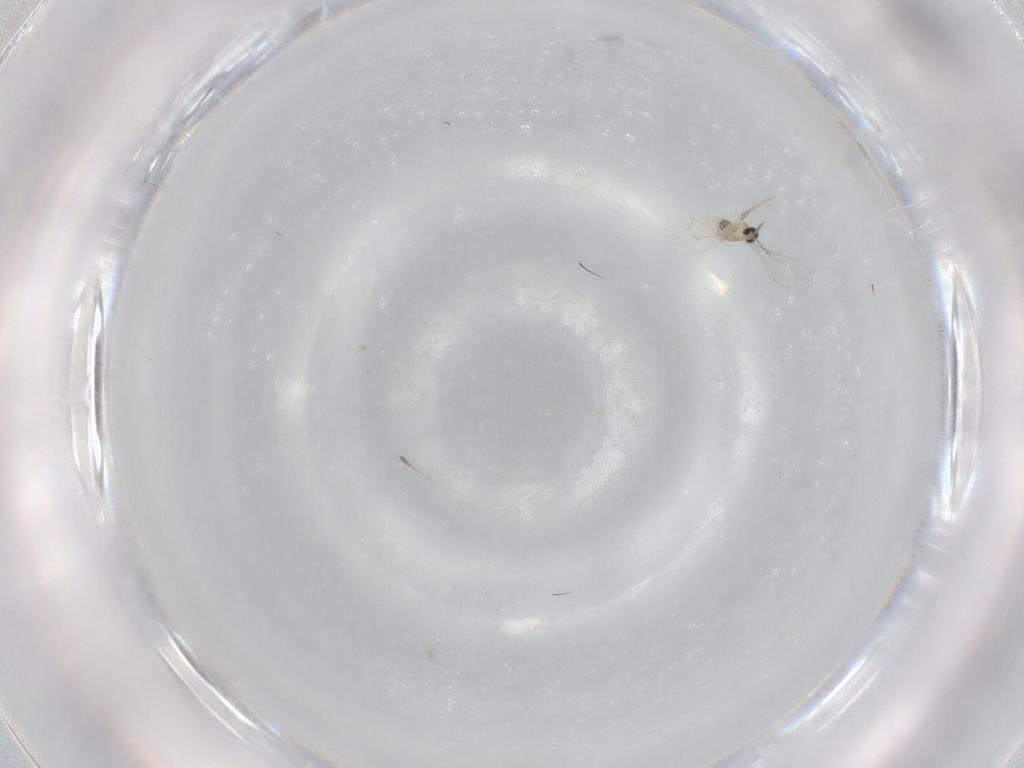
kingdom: Animalia
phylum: Arthropoda
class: Insecta
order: Diptera
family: Cecidomyiidae
